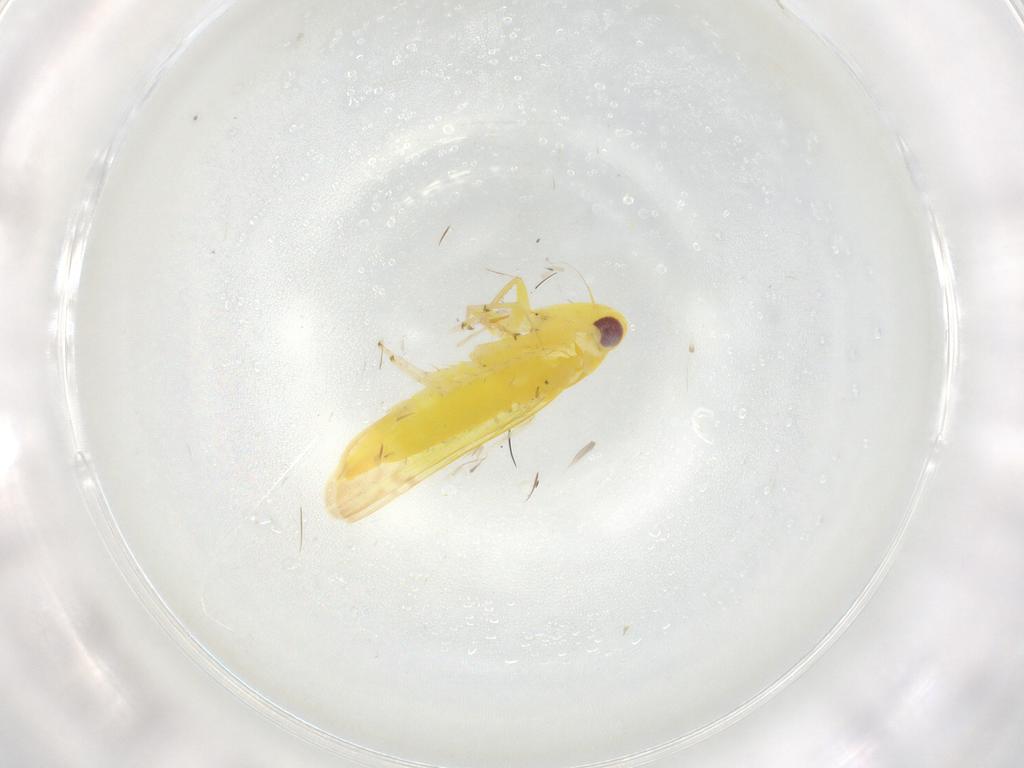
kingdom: Animalia
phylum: Arthropoda
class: Insecta
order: Hemiptera
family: Cicadellidae
